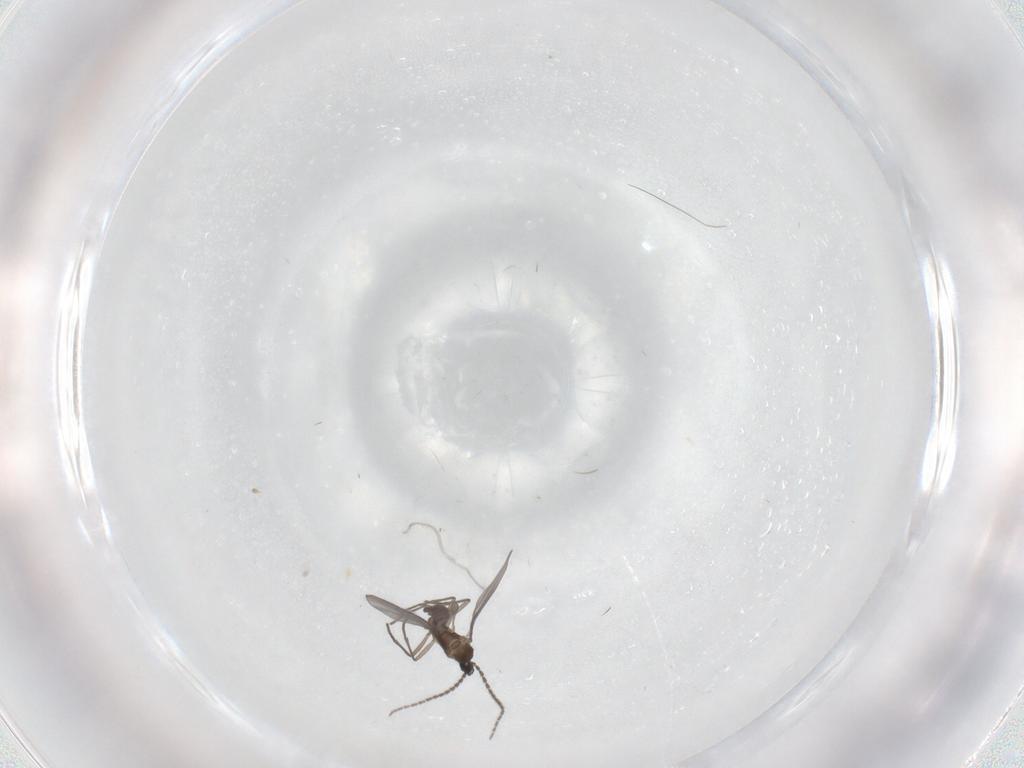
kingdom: Animalia
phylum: Arthropoda
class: Insecta
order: Diptera
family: Sciaridae
